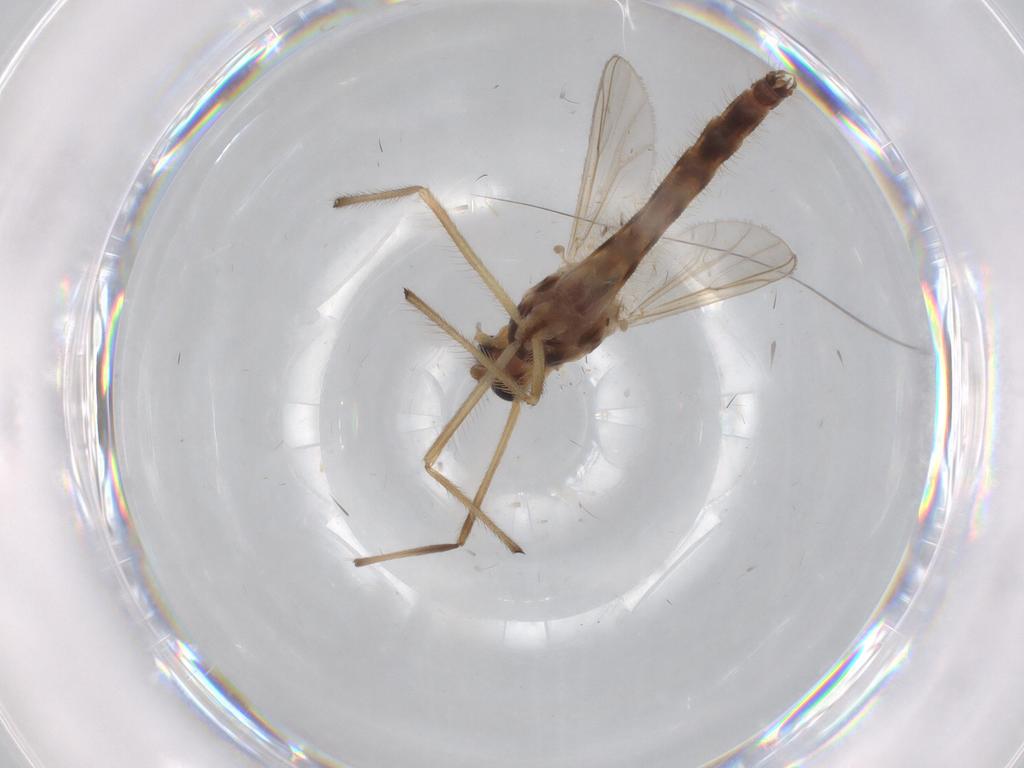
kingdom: Animalia
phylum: Arthropoda
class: Insecta
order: Diptera
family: Chironomidae
